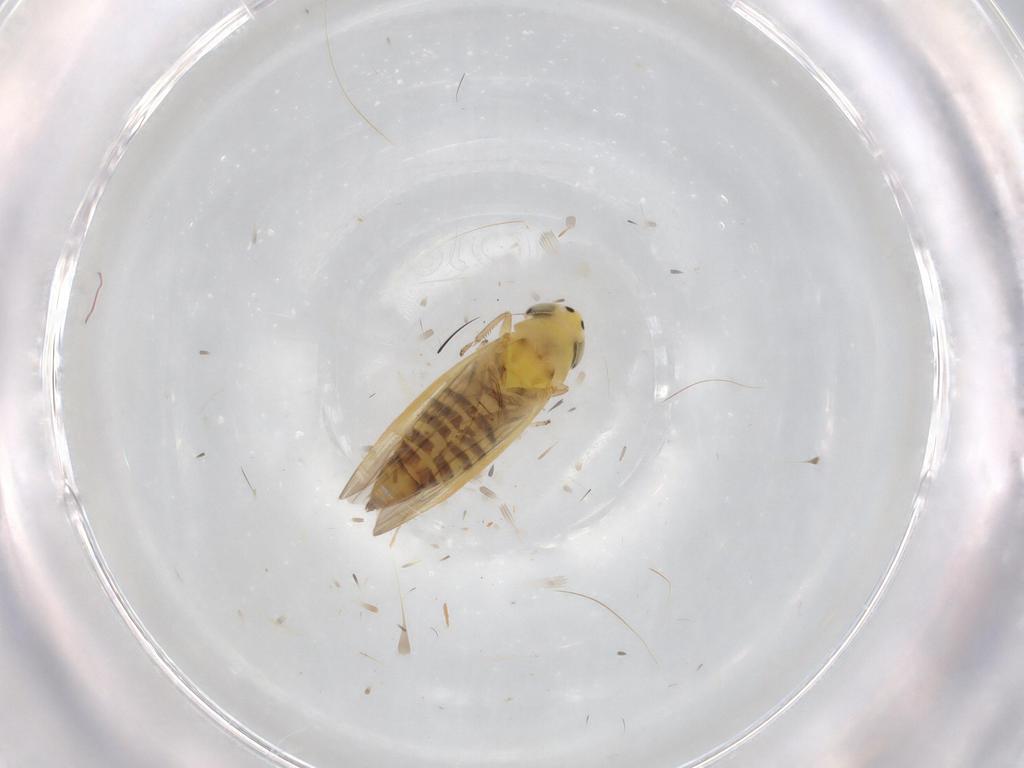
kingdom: Animalia
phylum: Arthropoda
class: Insecta
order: Hemiptera
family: Cicadellidae
